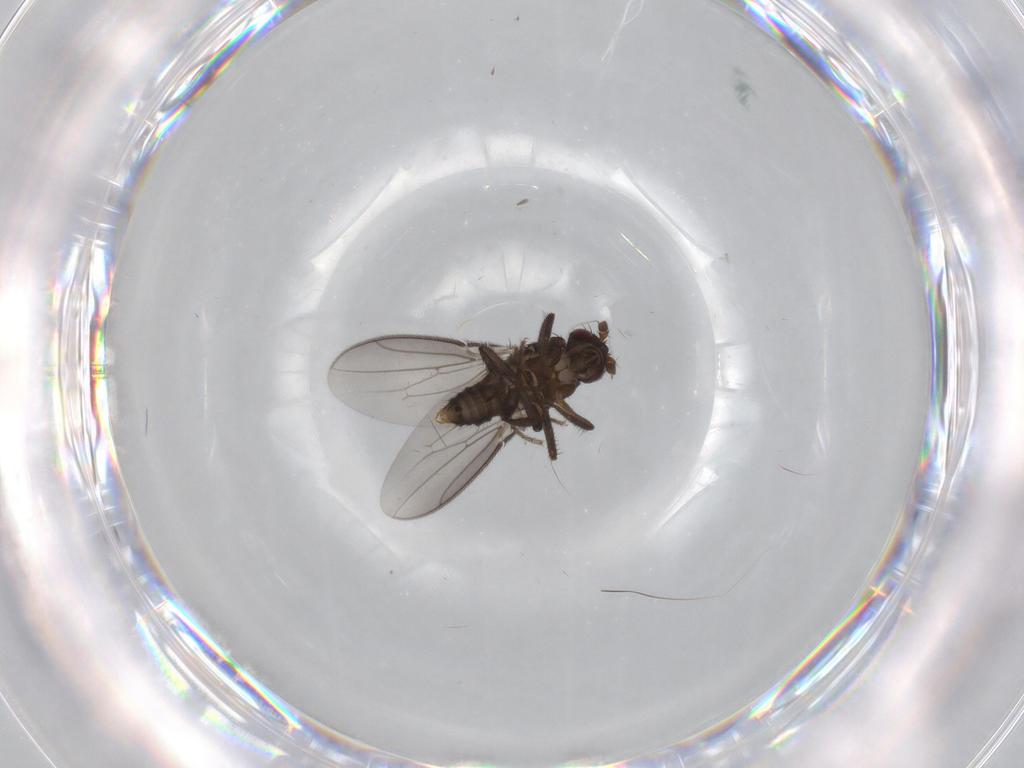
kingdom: Animalia
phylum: Arthropoda
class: Insecta
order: Diptera
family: Sphaeroceridae
